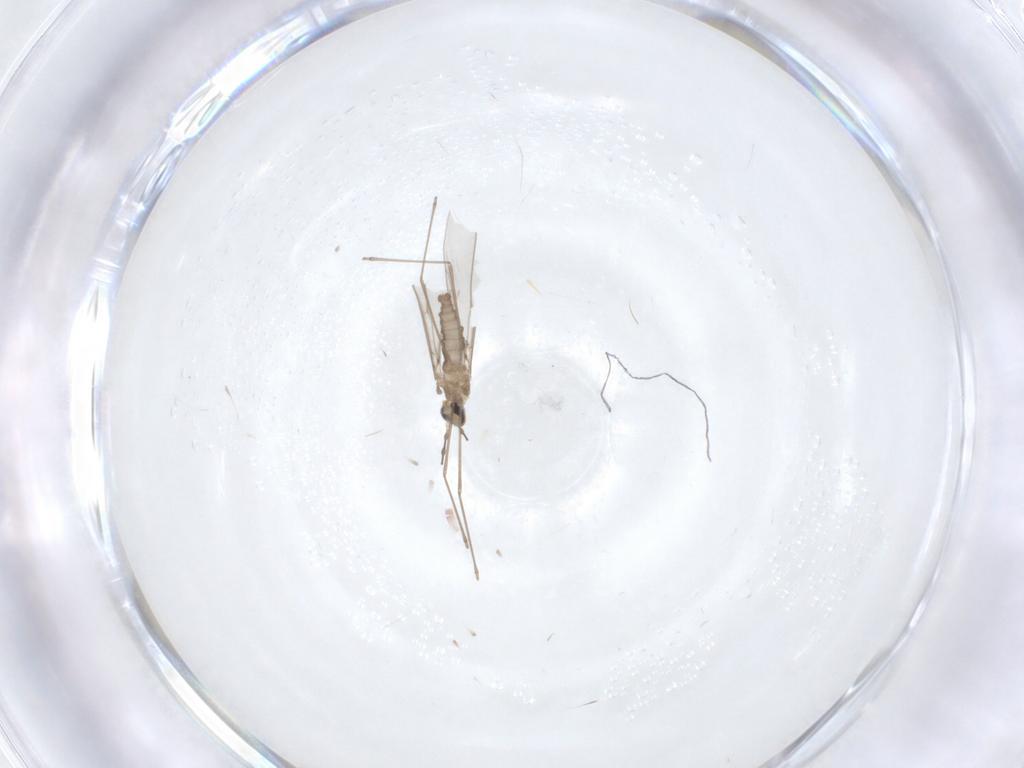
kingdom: Animalia
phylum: Arthropoda
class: Insecta
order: Diptera
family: Cecidomyiidae
